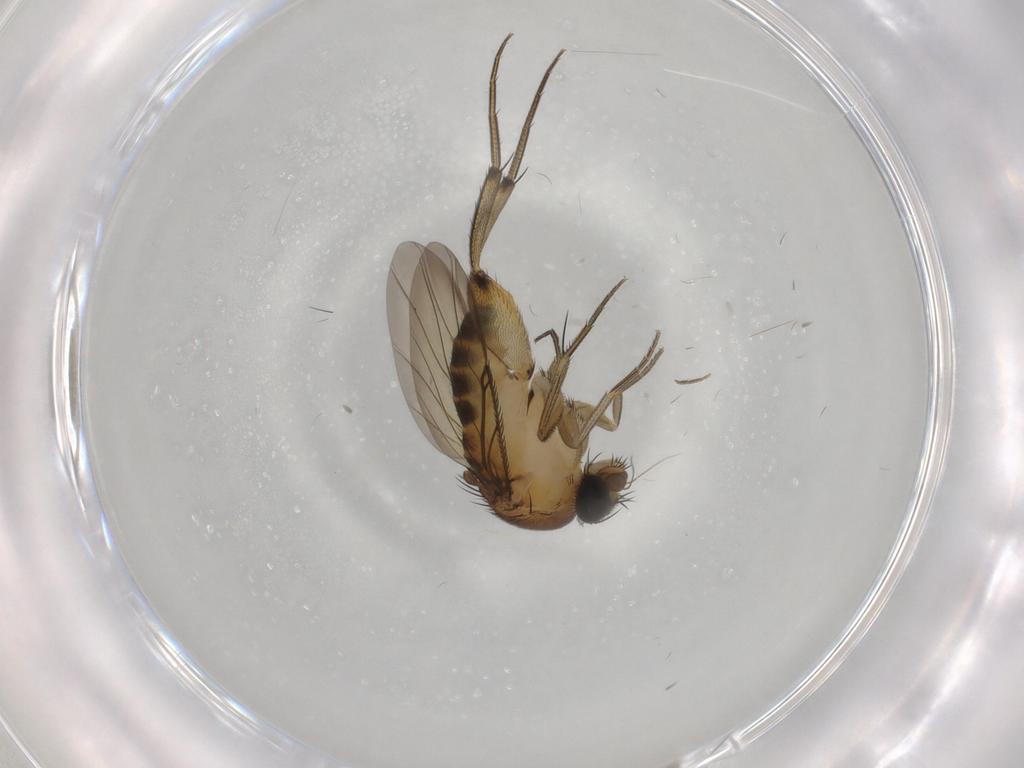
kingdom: Animalia
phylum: Arthropoda
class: Insecta
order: Diptera
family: Phoridae
